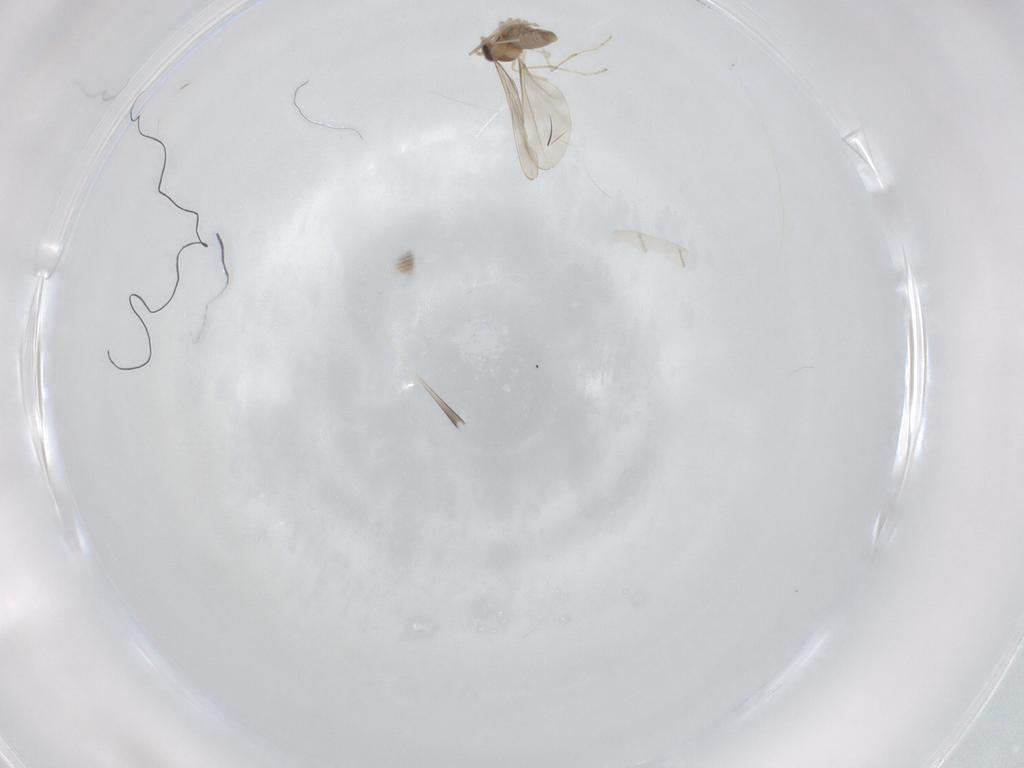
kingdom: Animalia
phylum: Arthropoda
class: Insecta
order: Diptera
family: Cecidomyiidae
